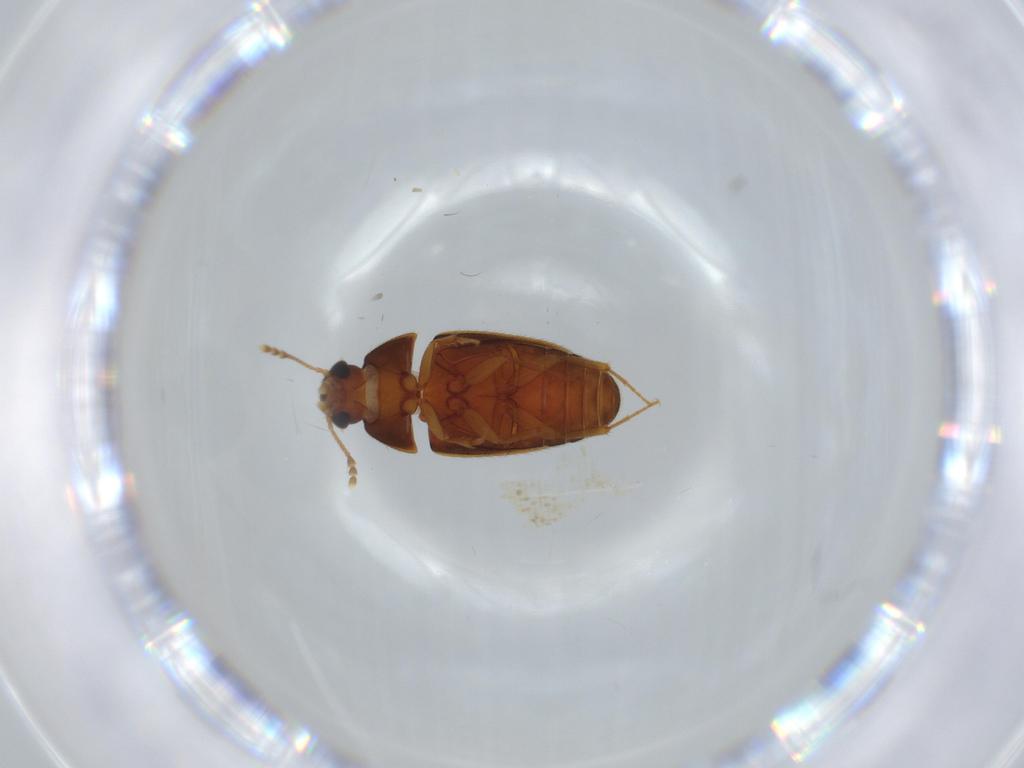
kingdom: Animalia
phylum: Arthropoda
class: Insecta
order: Coleoptera
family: Mycetophagidae
